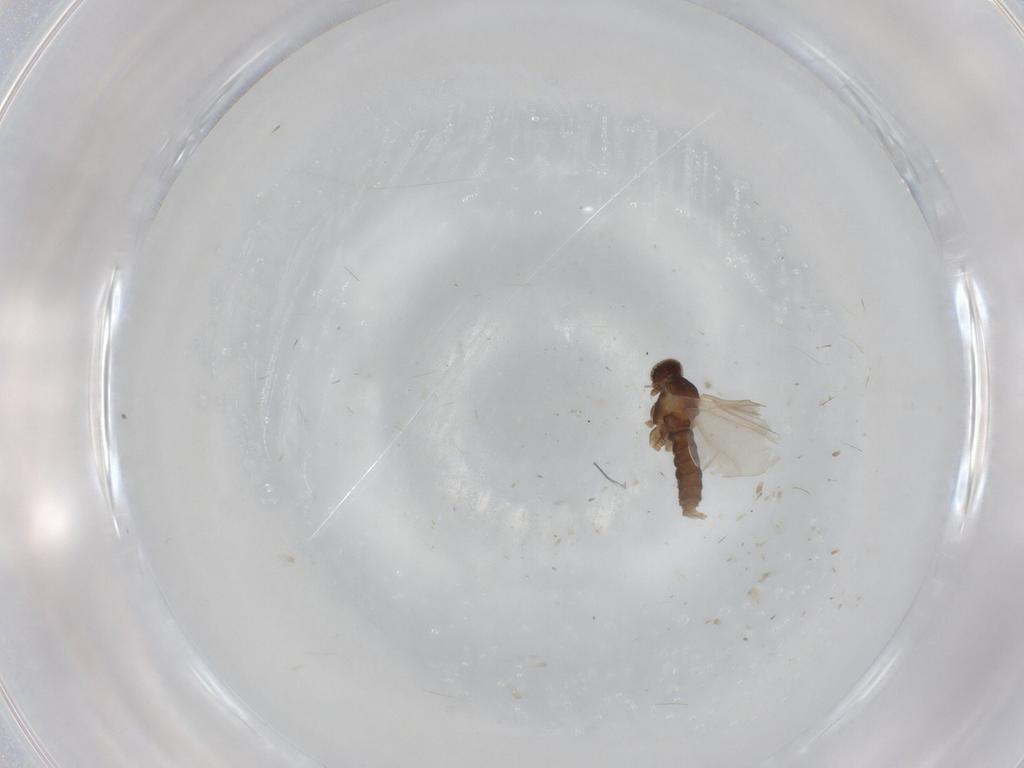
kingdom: Animalia
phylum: Arthropoda
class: Insecta
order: Diptera
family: Cecidomyiidae
